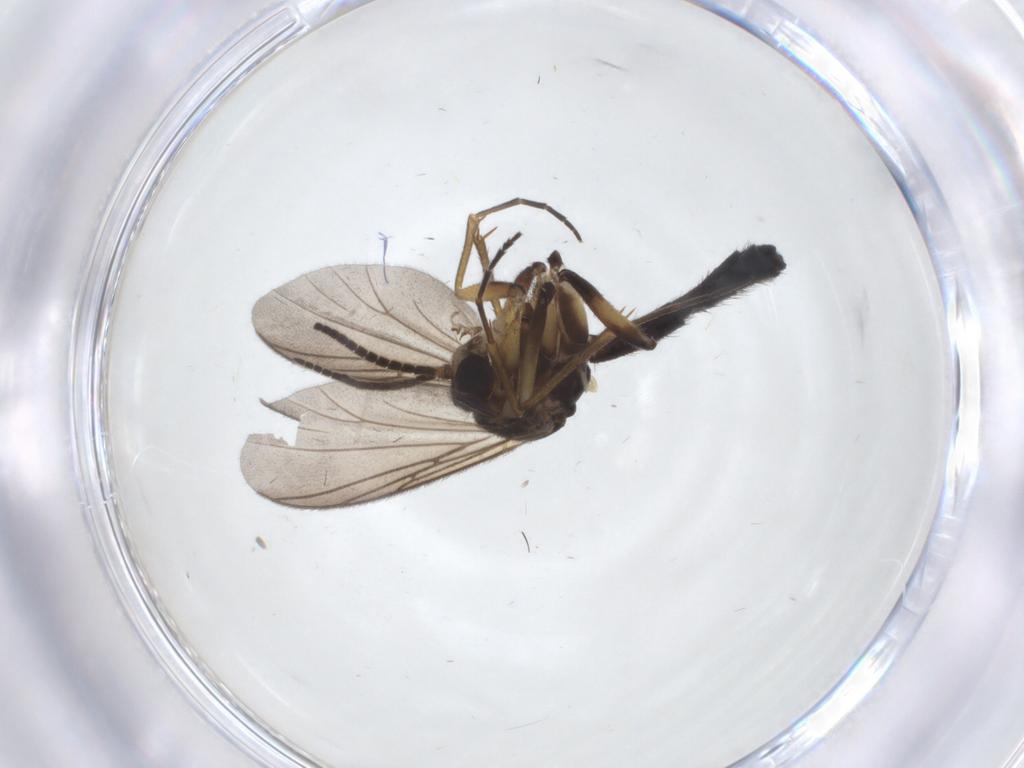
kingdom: Animalia
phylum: Arthropoda
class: Insecta
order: Diptera
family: Cecidomyiidae
